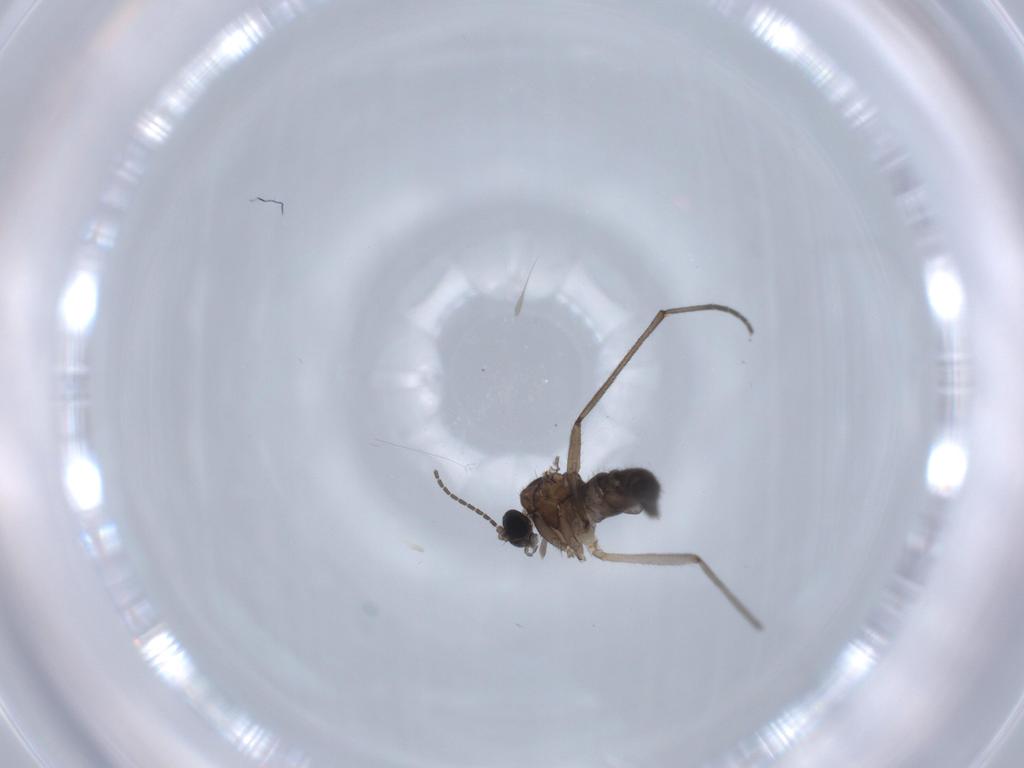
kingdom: Animalia
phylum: Arthropoda
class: Insecta
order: Diptera
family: Sciaridae
